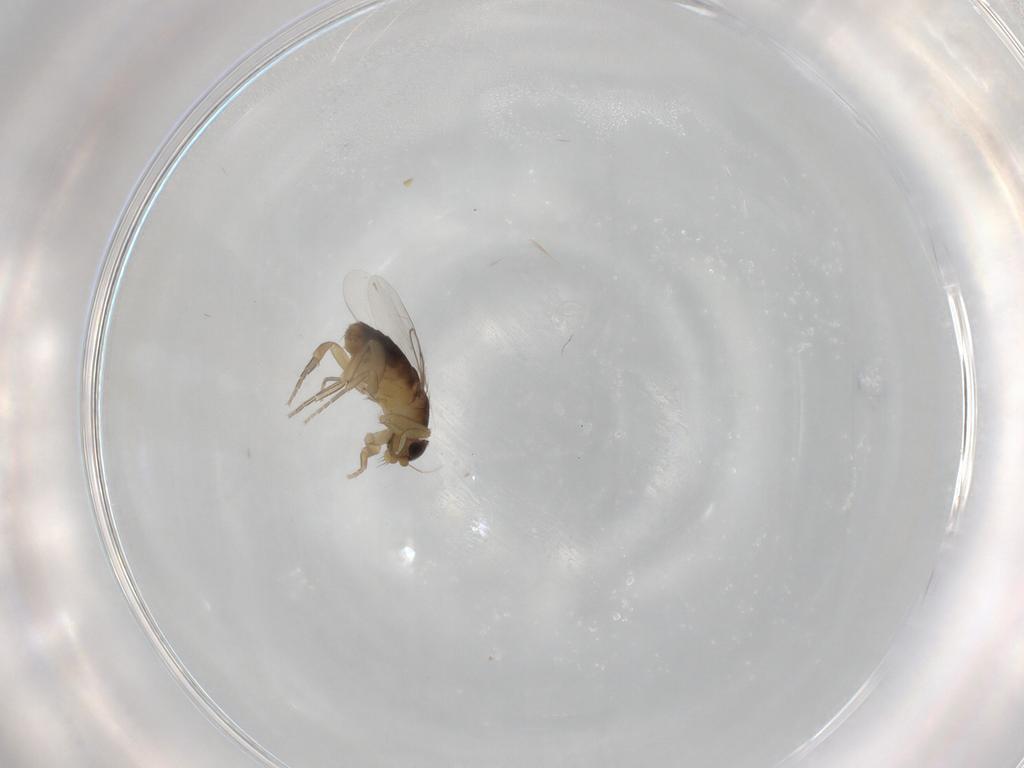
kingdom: Animalia
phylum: Arthropoda
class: Insecta
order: Diptera
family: Phoridae
